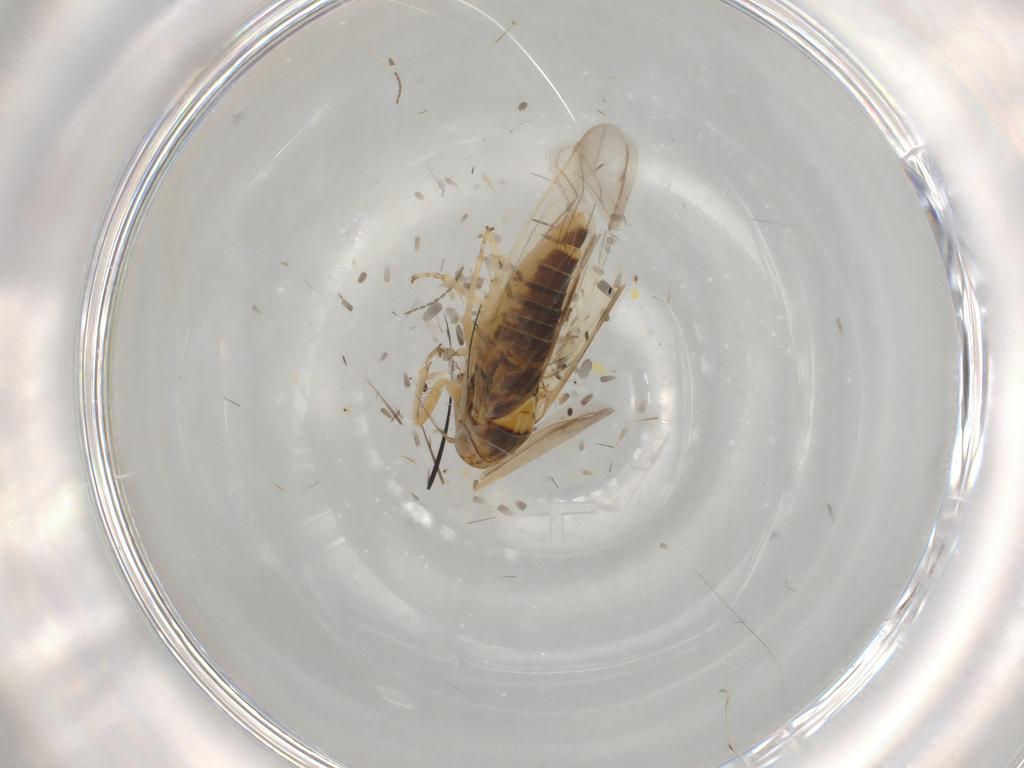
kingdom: Animalia
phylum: Arthropoda
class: Insecta
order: Hemiptera
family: Cicadellidae
